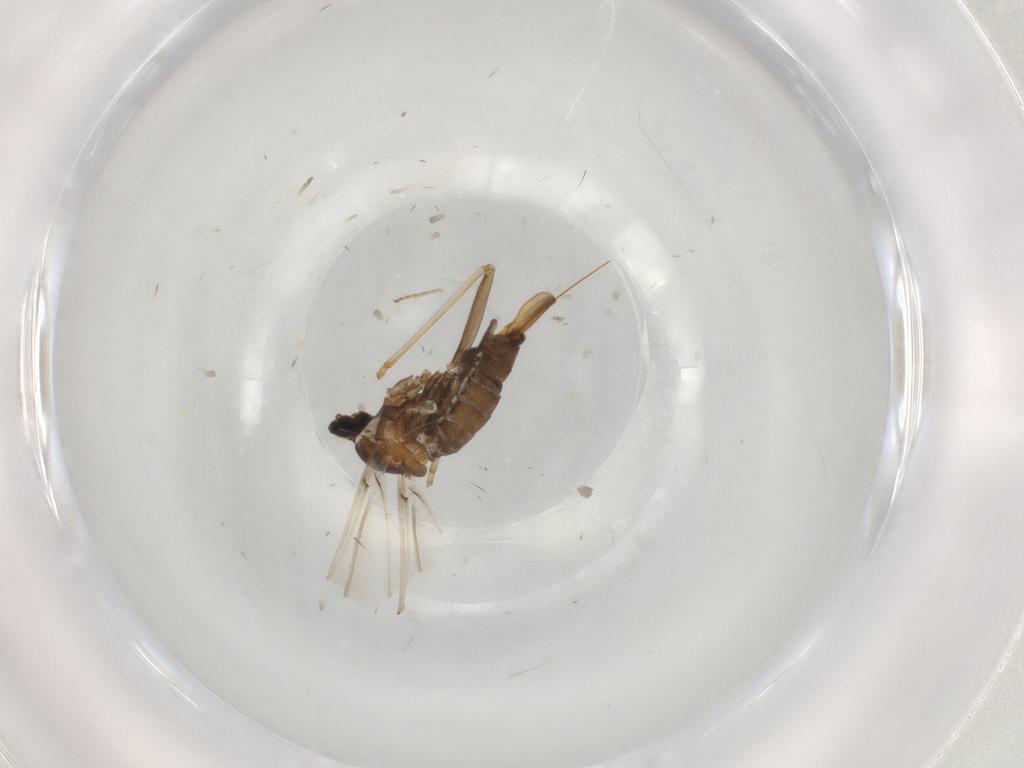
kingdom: Animalia
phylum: Arthropoda
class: Insecta
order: Diptera
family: Cecidomyiidae
